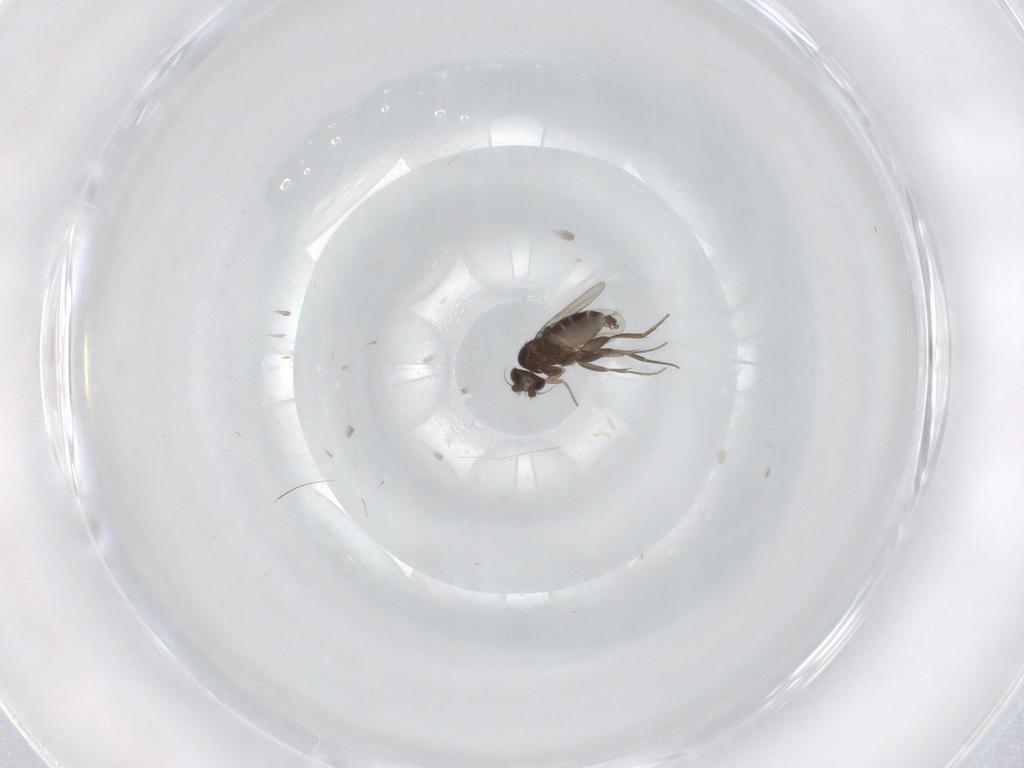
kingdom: Animalia
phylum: Arthropoda
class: Insecta
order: Diptera
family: Phoridae
